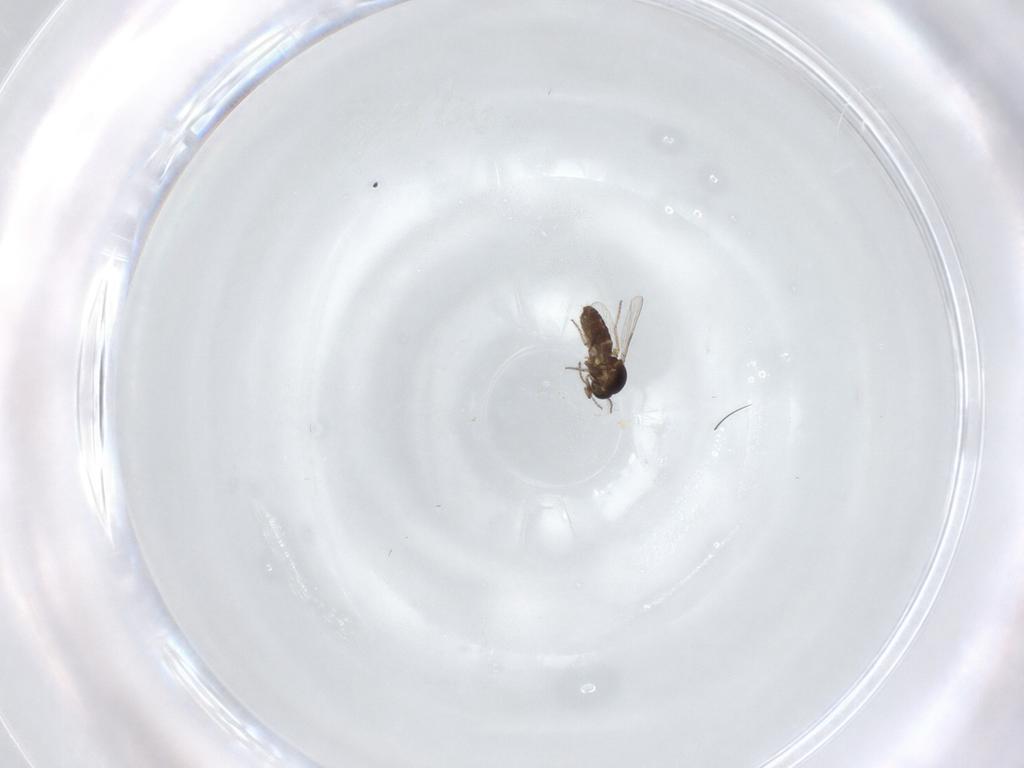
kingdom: Animalia
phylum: Arthropoda
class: Insecta
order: Diptera
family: Ceratopogonidae
